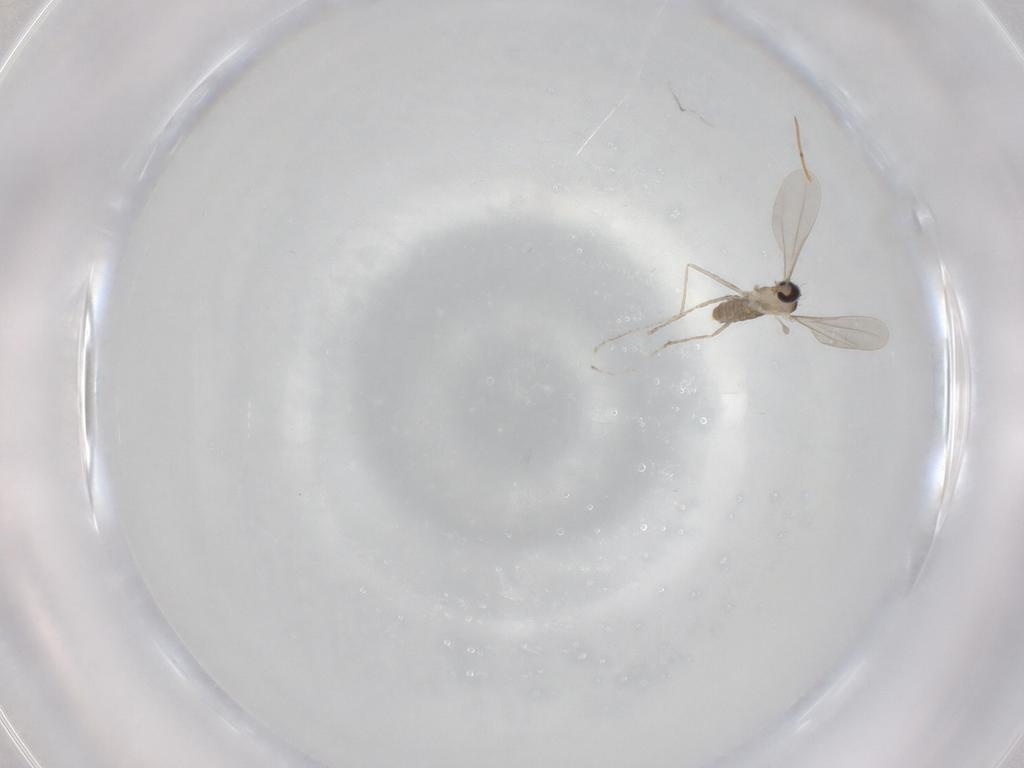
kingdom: Animalia
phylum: Arthropoda
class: Insecta
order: Diptera
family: Cecidomyiidae
